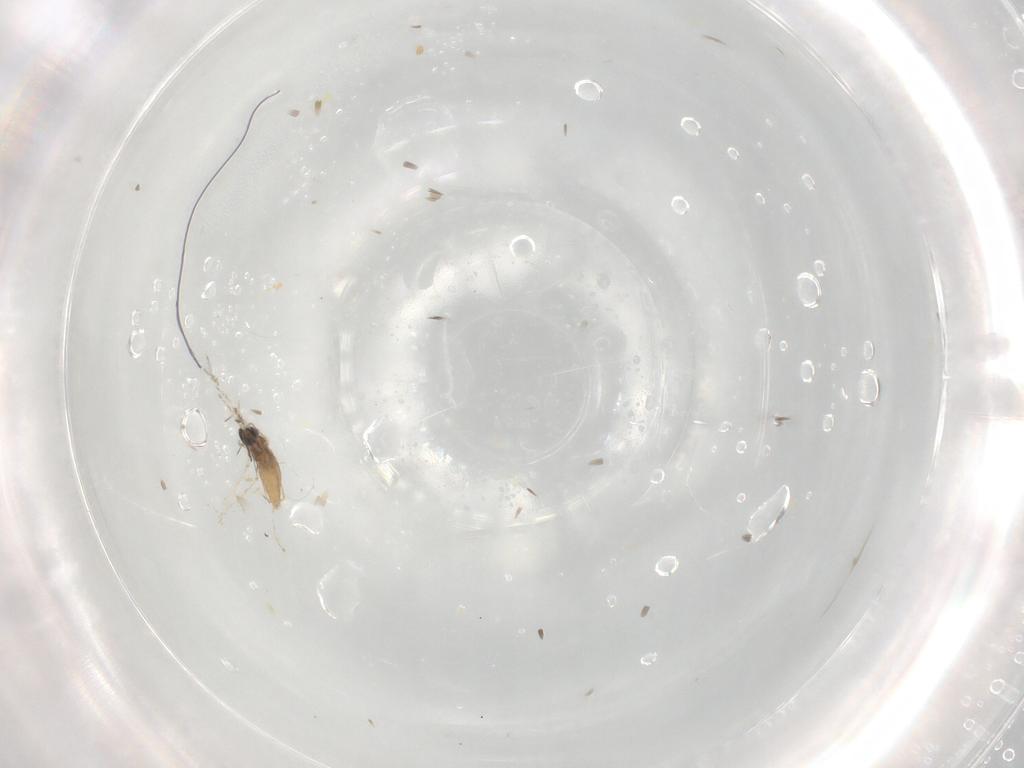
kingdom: Animalia
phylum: Arthropoda
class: Insecta
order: Diptera
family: Cecidomyiidae
